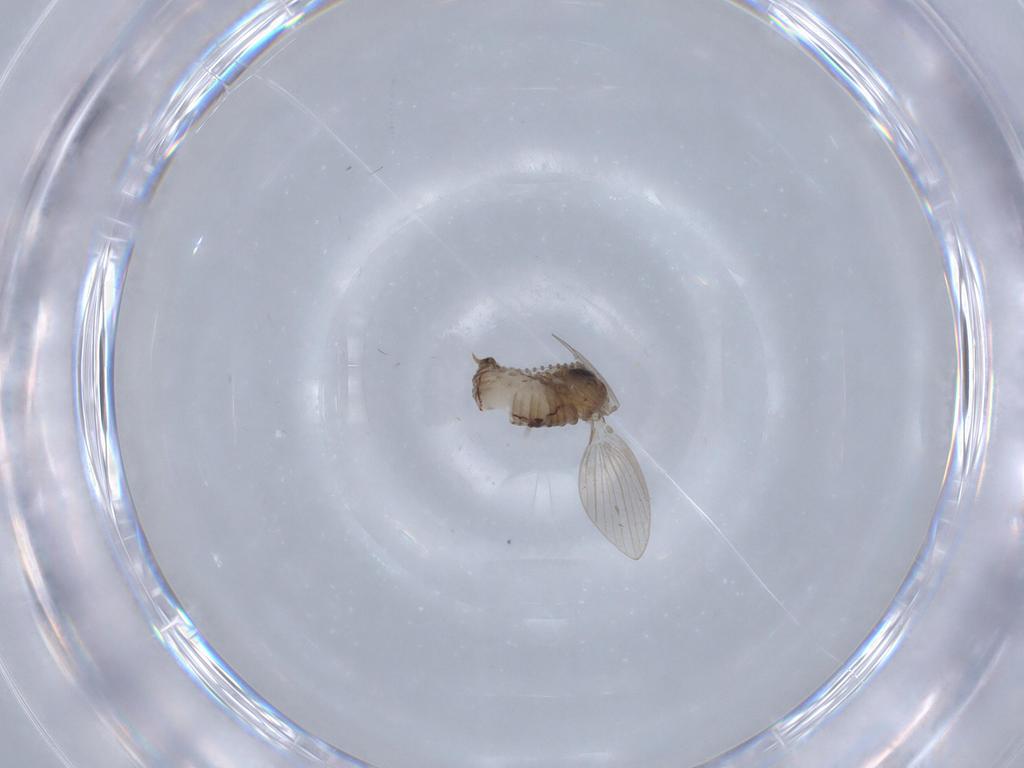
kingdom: Animalia
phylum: Arthropoda
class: Insecta
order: Diptera
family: Psychodidae
